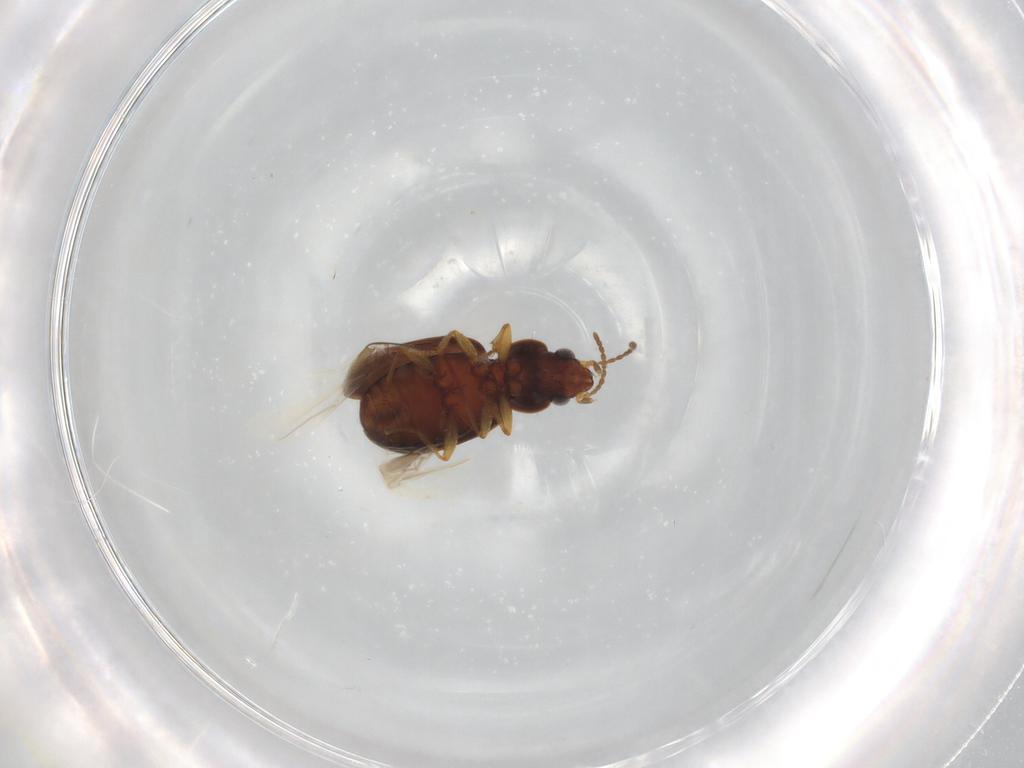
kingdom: Animalia
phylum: Arthropoda
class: Insecta
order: Coleoptera
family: Carabidae
